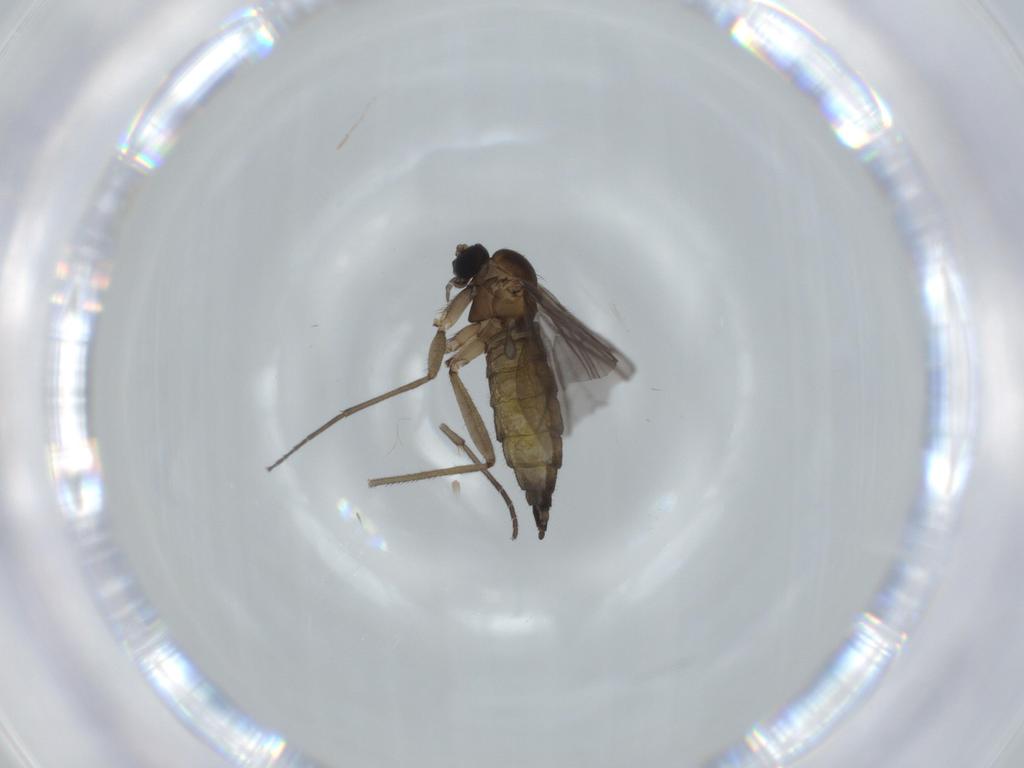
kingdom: Animalia
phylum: Arthropoda
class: Insecta
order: Diptera
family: Sciaridae
